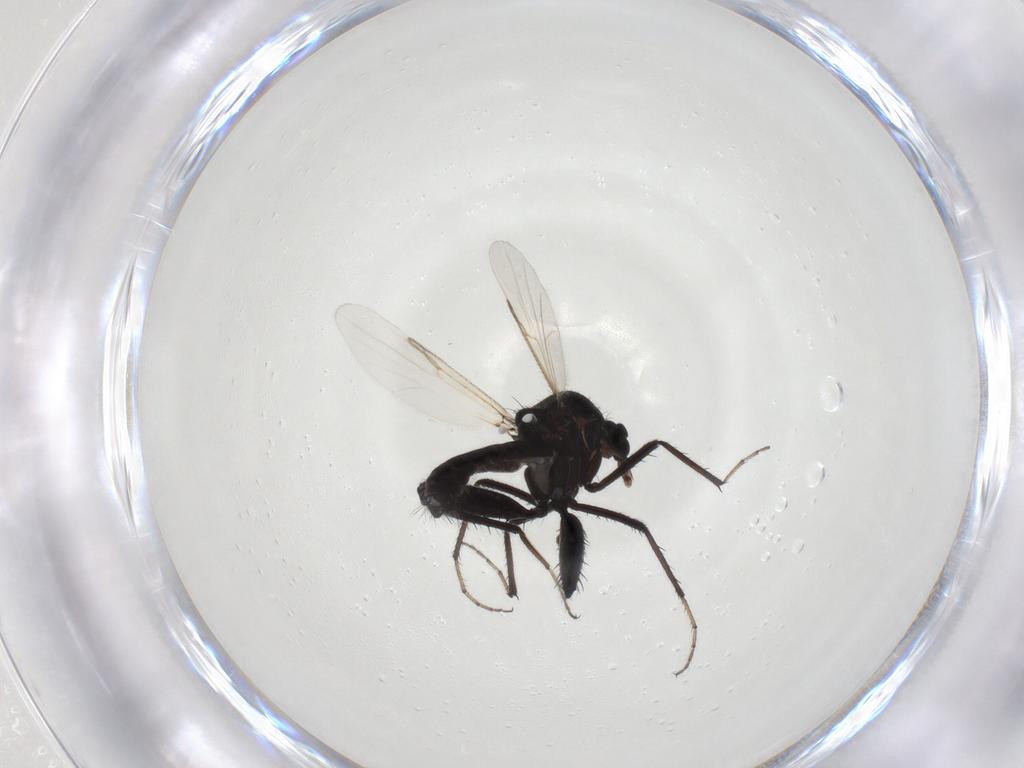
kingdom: Animalia
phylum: Arthropoda
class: Insecta
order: Diptera
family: Ceratopogonidae
